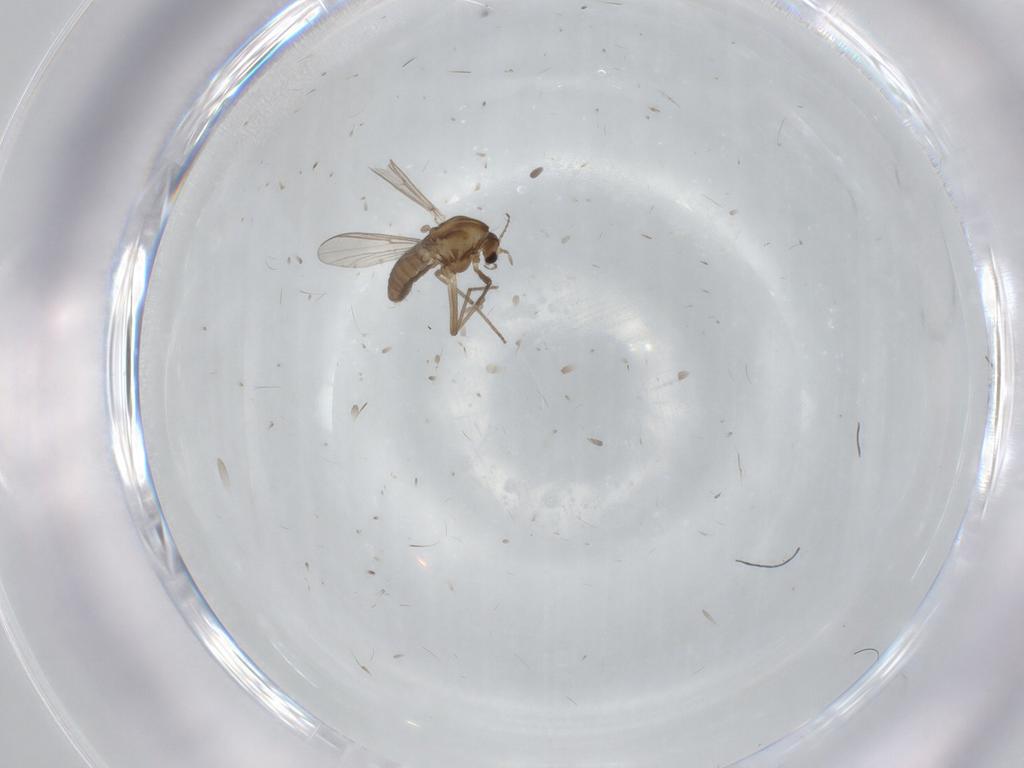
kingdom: Animalia
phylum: Arthropoda
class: Insecta
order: Diptera
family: Chironomidae
